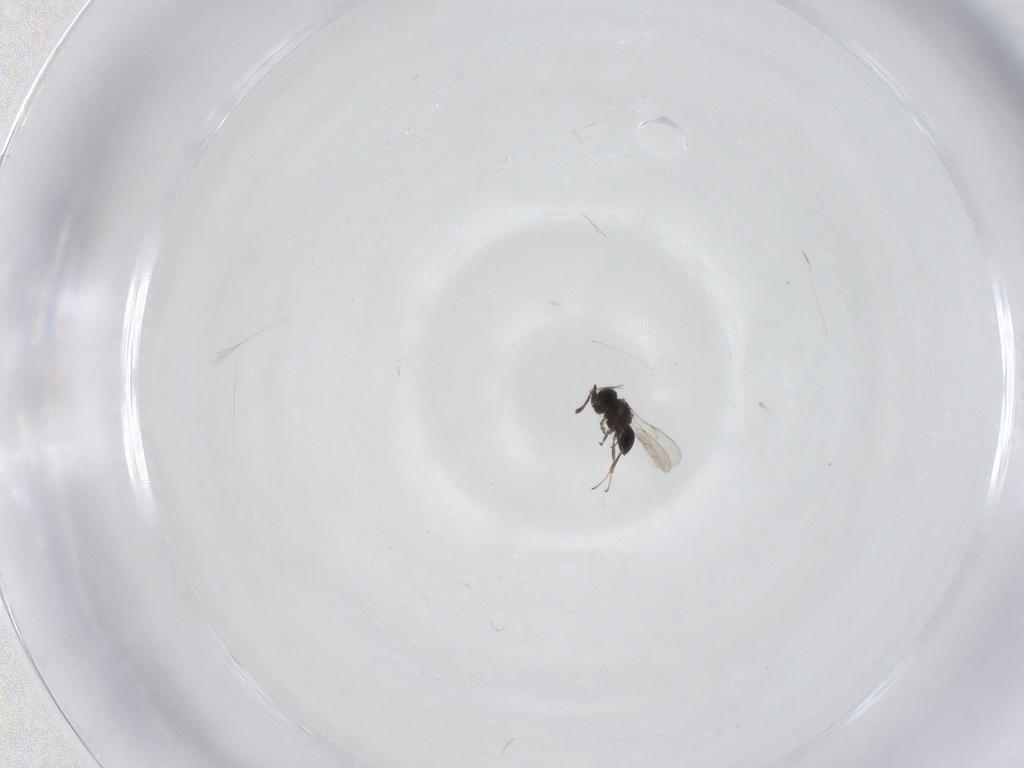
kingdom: Animalia
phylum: Arthropoda
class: Insecta
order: Hymenoptera
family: Scelionidae
